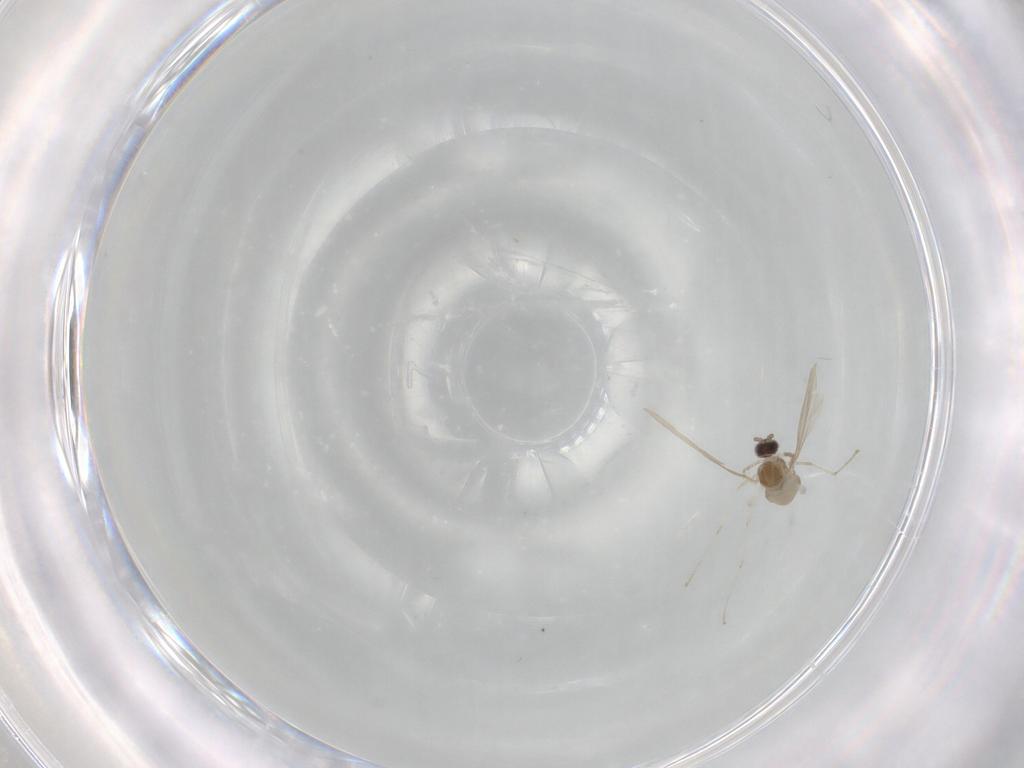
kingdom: Animalia
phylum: Arthropoda
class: Insecta
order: Diptera
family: Cecidomyiidae
